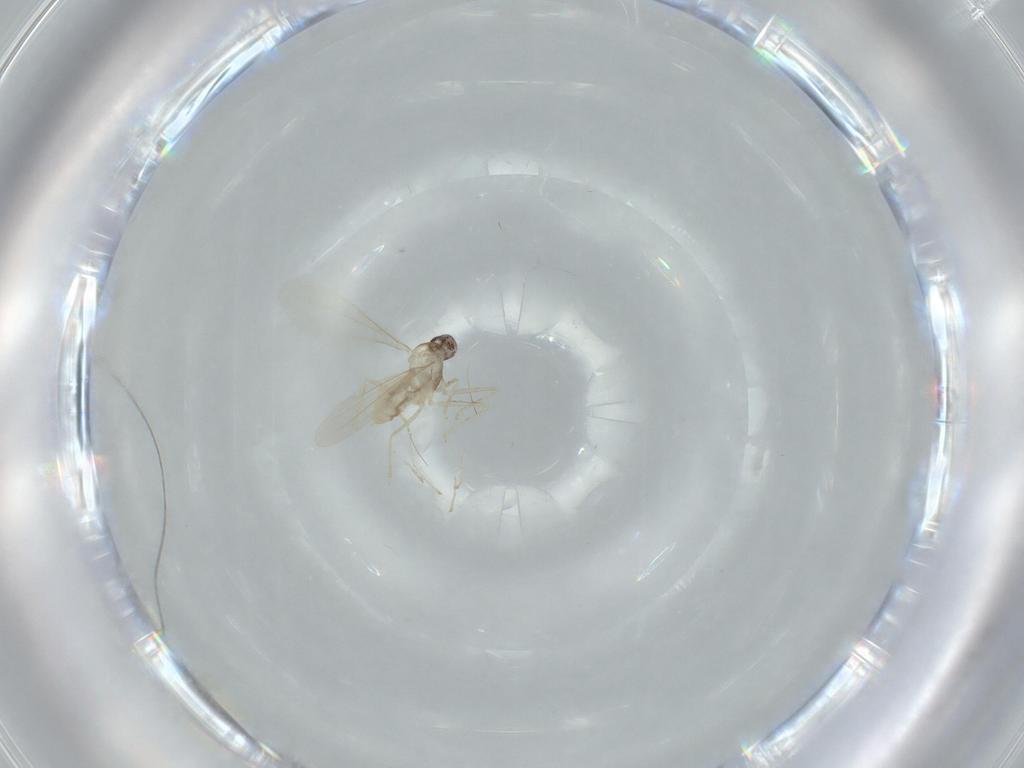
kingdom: Animalia
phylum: Arthropoda
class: Insecta
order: Diptera
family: Cecidomyiidae
